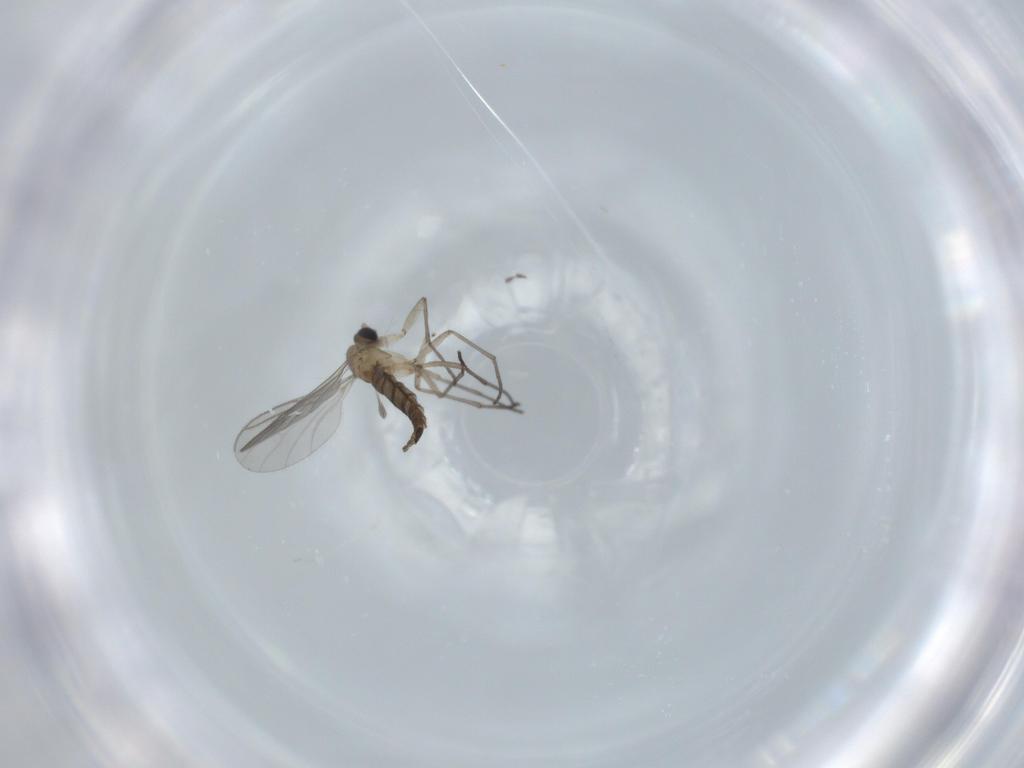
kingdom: Animalia
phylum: Arthropoda
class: Insecta
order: Diptera
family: Sciaridae
